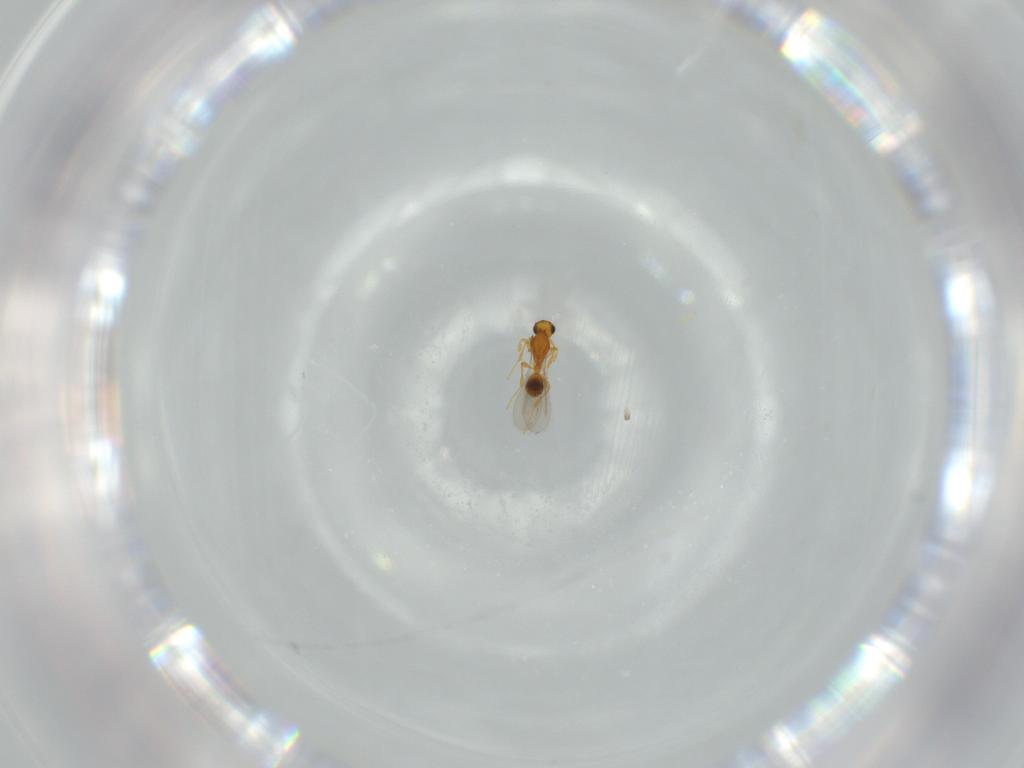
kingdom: Animalia
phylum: Arthropoda
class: Insecta
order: Hymenoptera
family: Platygastridae
